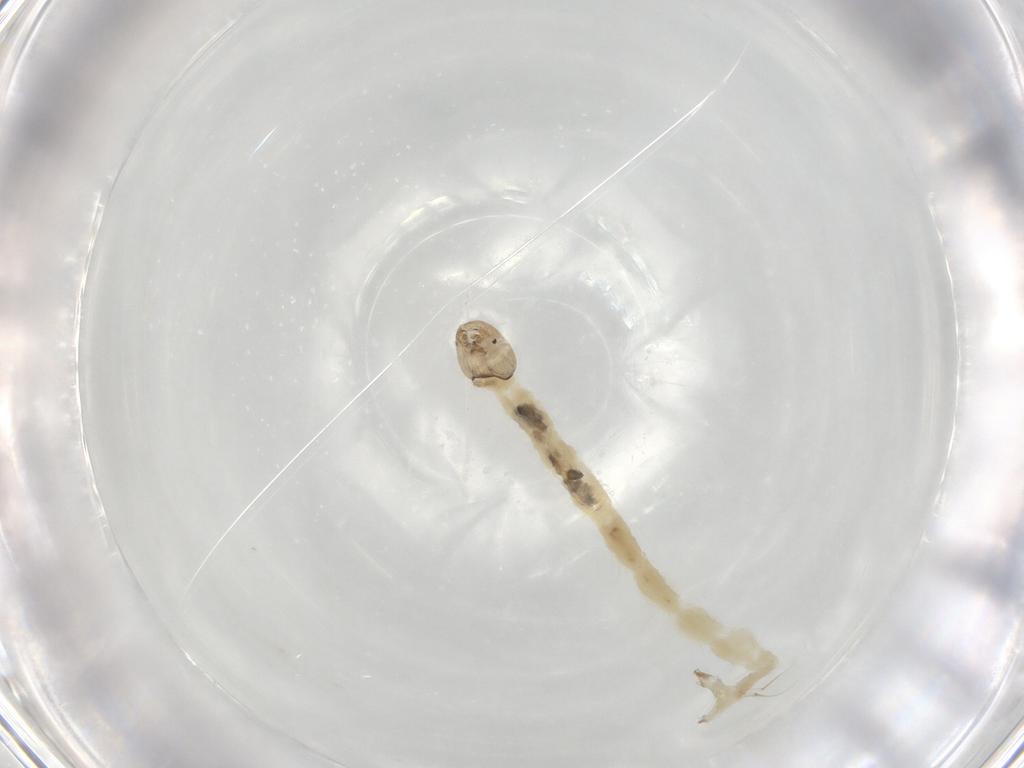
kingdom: Animalia
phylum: Arthropoda
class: Insecta
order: Diptera
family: Chironomidae
